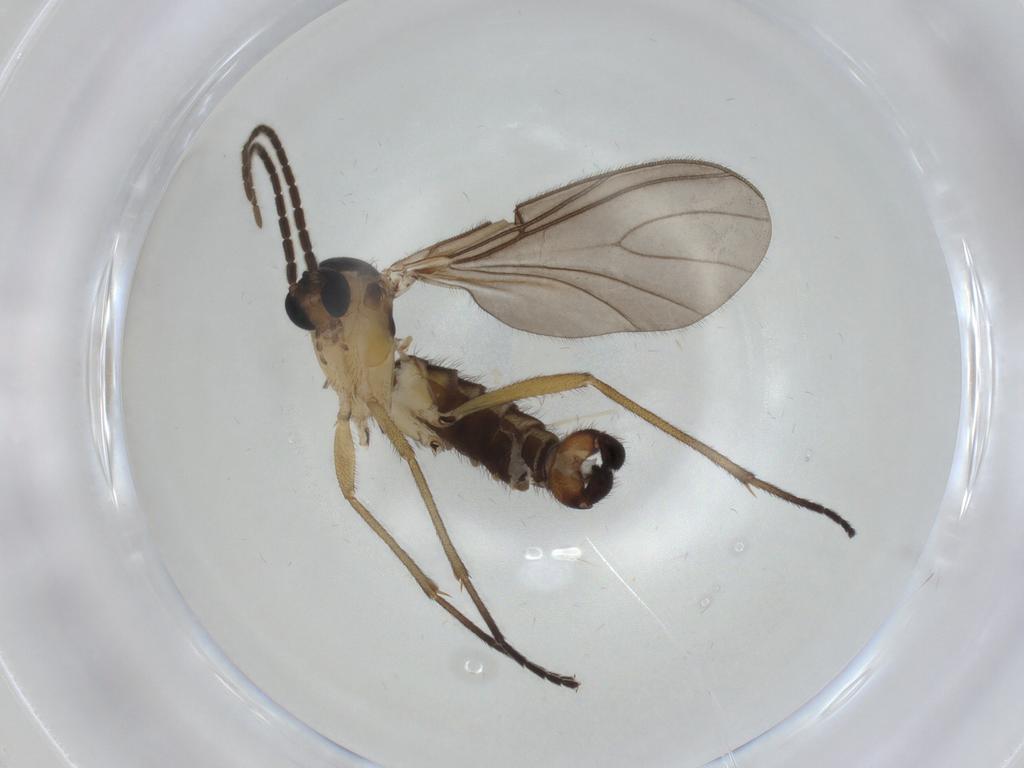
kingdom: Animalia
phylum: Arthropoda
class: Insecta
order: Diptera
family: Sciaridae
